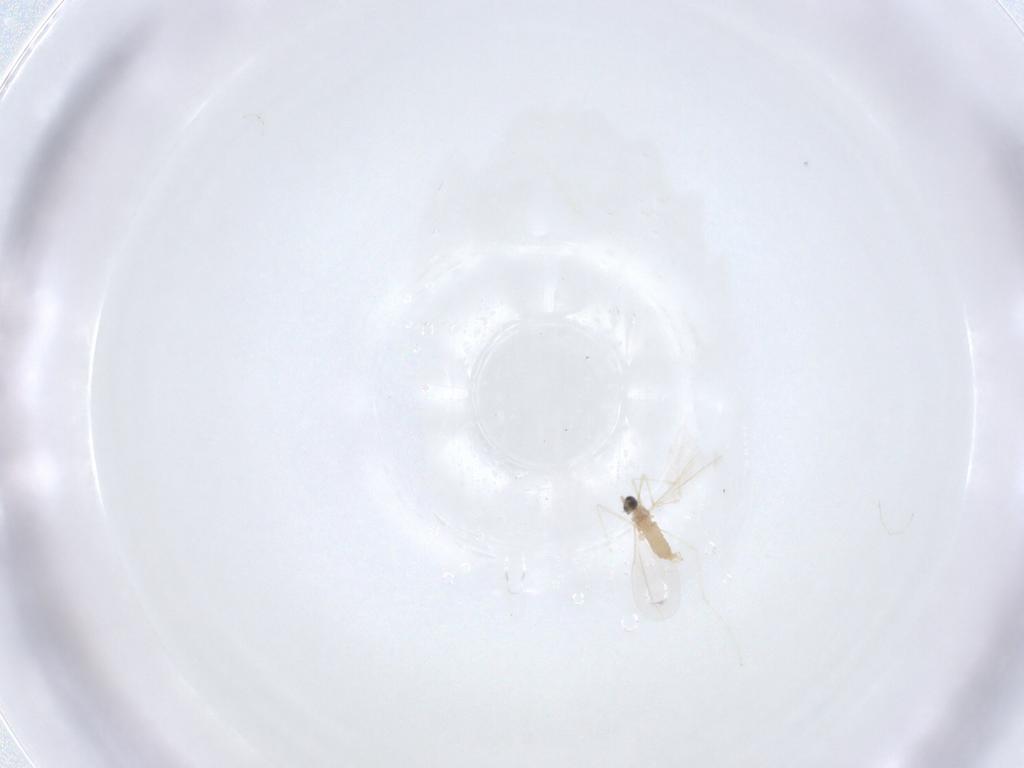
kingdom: Animalia
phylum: Arthropoda
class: Insecta
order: Diptera
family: Cecidomyiidae
